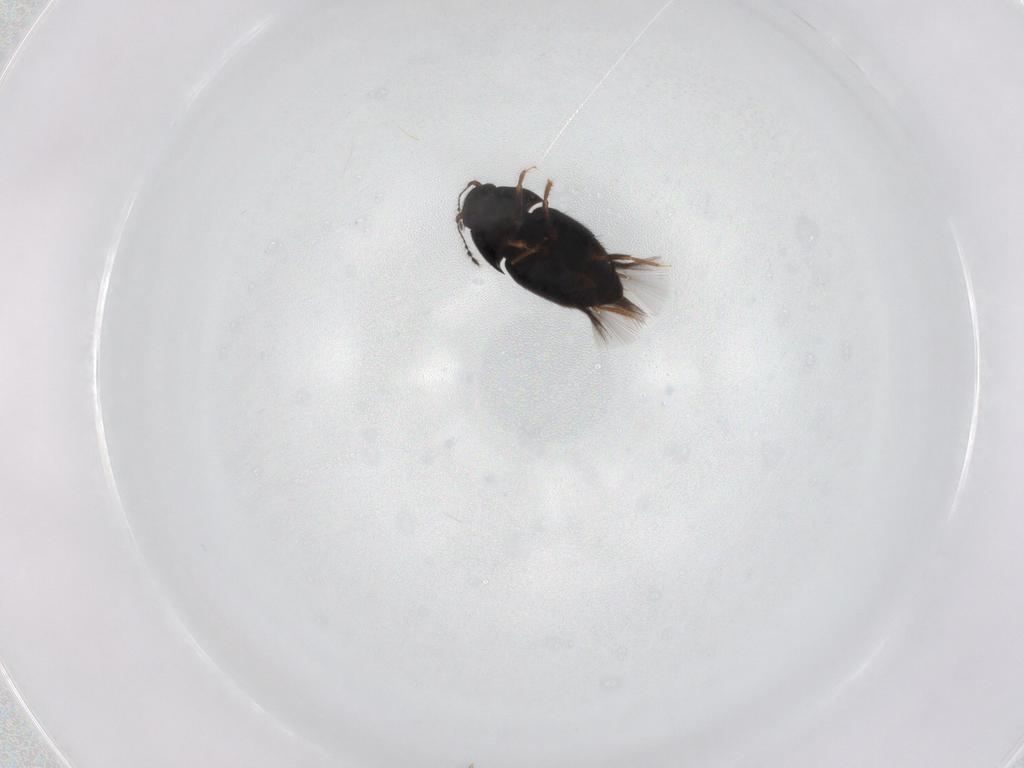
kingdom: Animalia
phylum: Arthropoda
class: Insecta
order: Coleoptera
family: Ptiliidae
